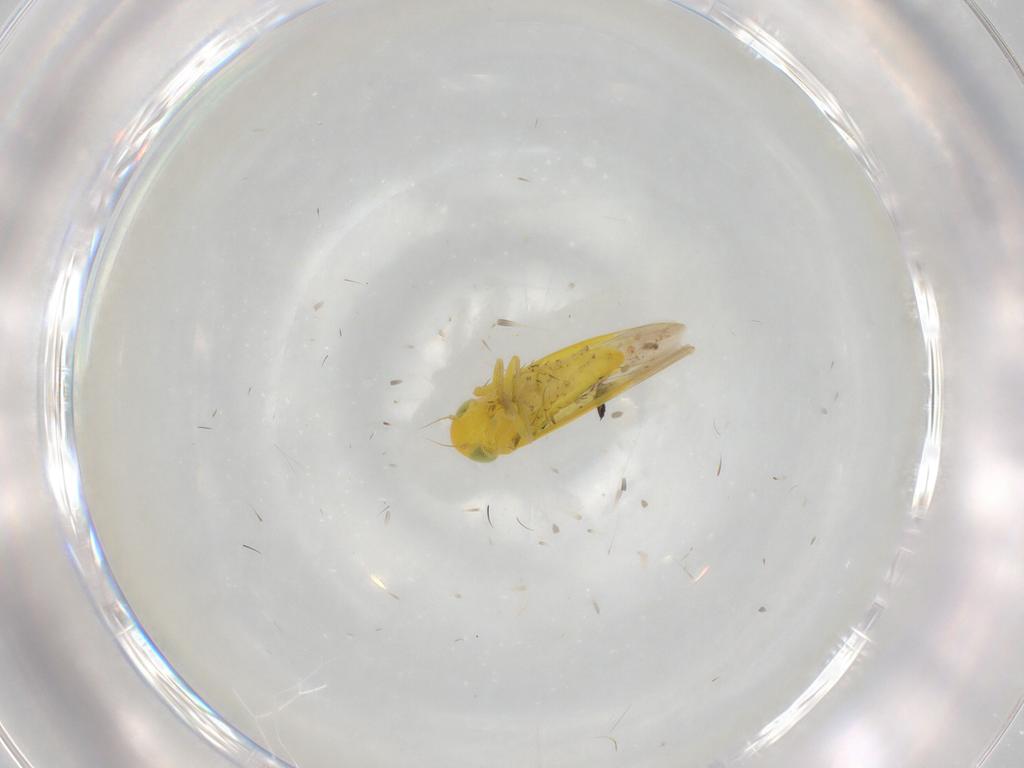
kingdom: Animalia
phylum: Arthropoda
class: Insecta
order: Hemiptera
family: Cicadellidae
